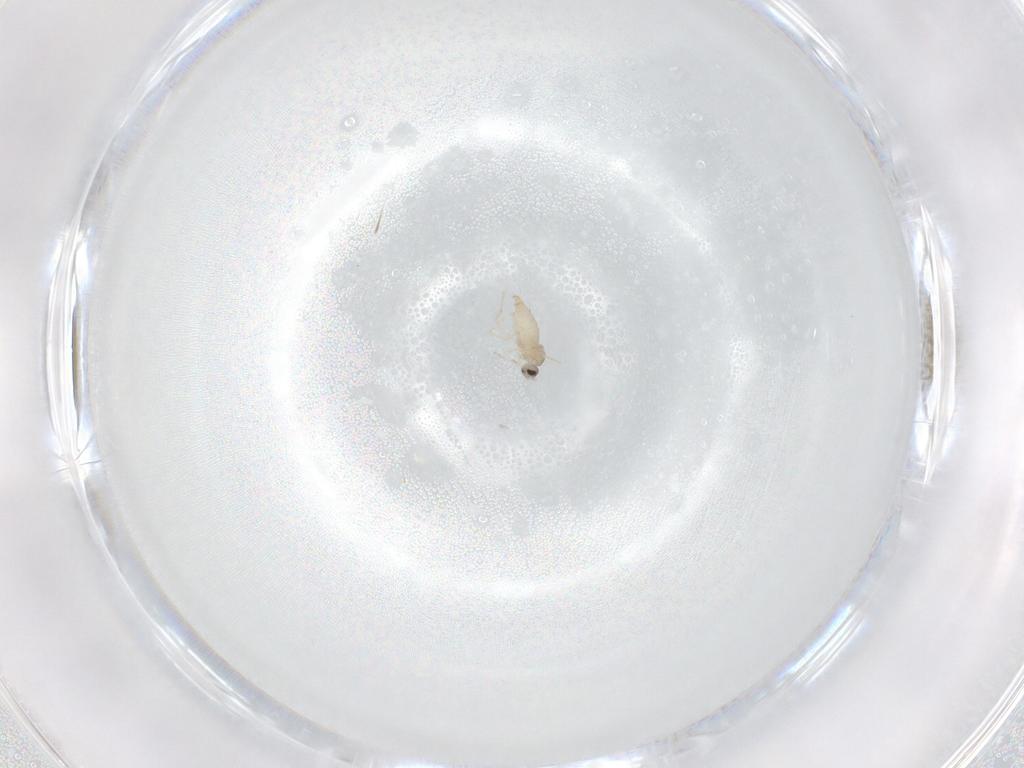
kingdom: Animalia
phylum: Arthropoda
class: Insecta
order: Diptera
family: Cecidomyiidae
